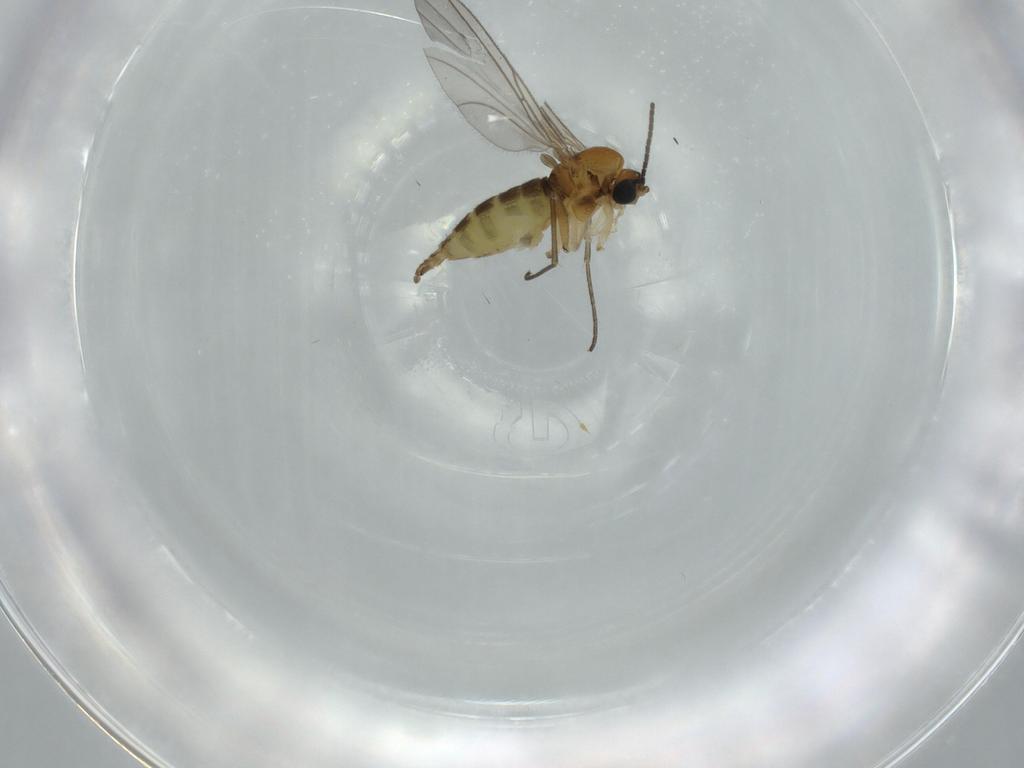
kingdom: Animalia
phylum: Arthropoda
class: Insecta
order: Diptera
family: Sciaridae
